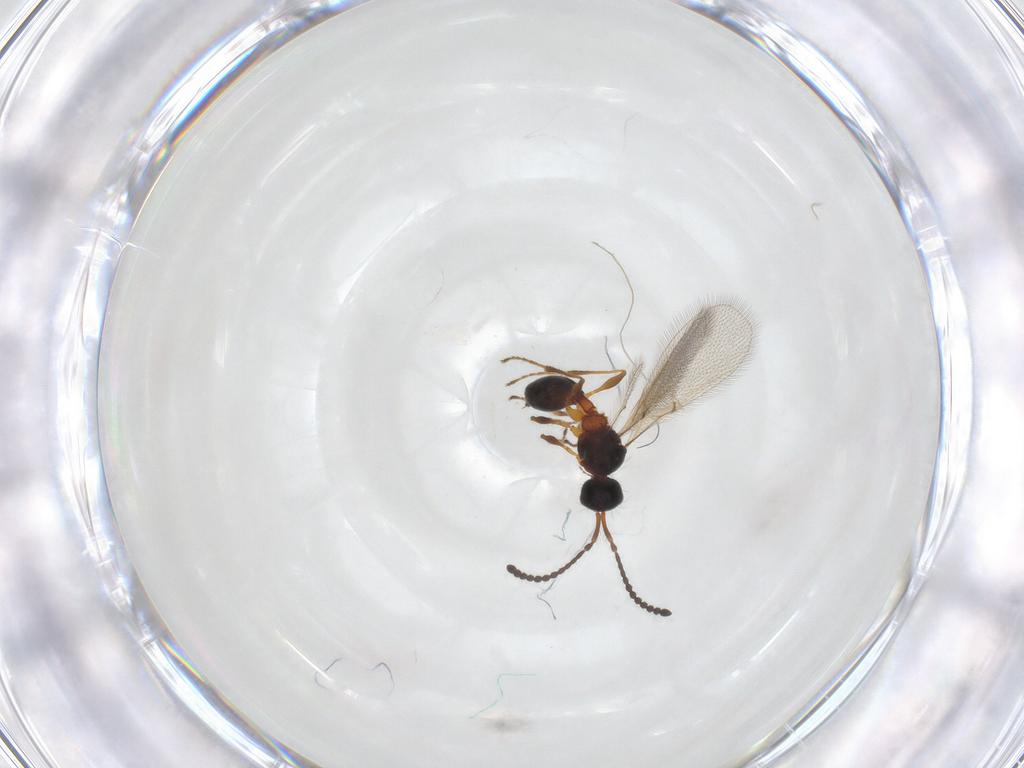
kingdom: Animalia
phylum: Arthropoda
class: Insecta
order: Hymenoptera
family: Diapriidae
